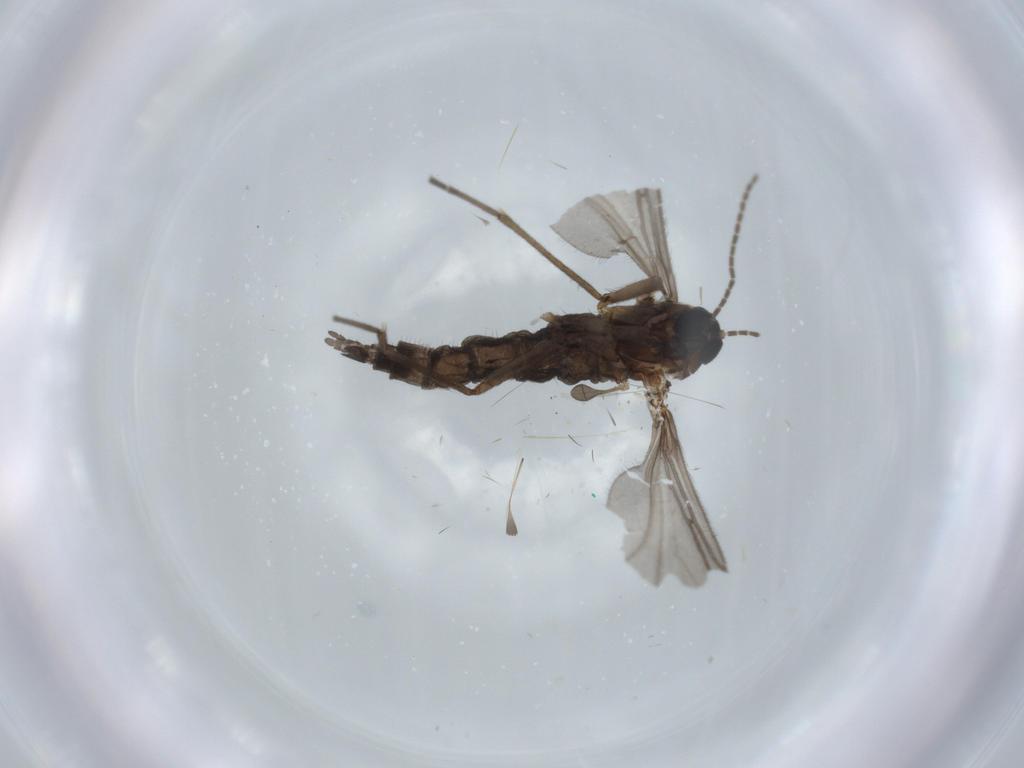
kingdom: Animalia
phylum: Arthropoda
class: Insecta
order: Diptera
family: Sciaridae
